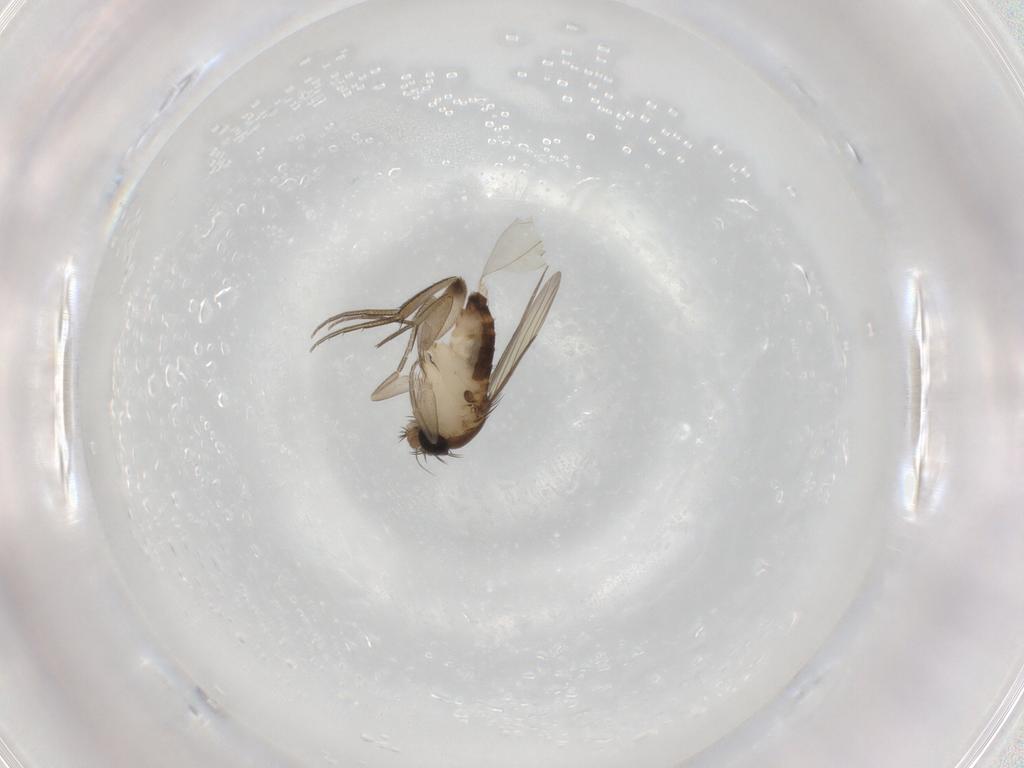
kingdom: Animalia
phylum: Arthropoda
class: Insecta
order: Diptera
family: Phoridae
